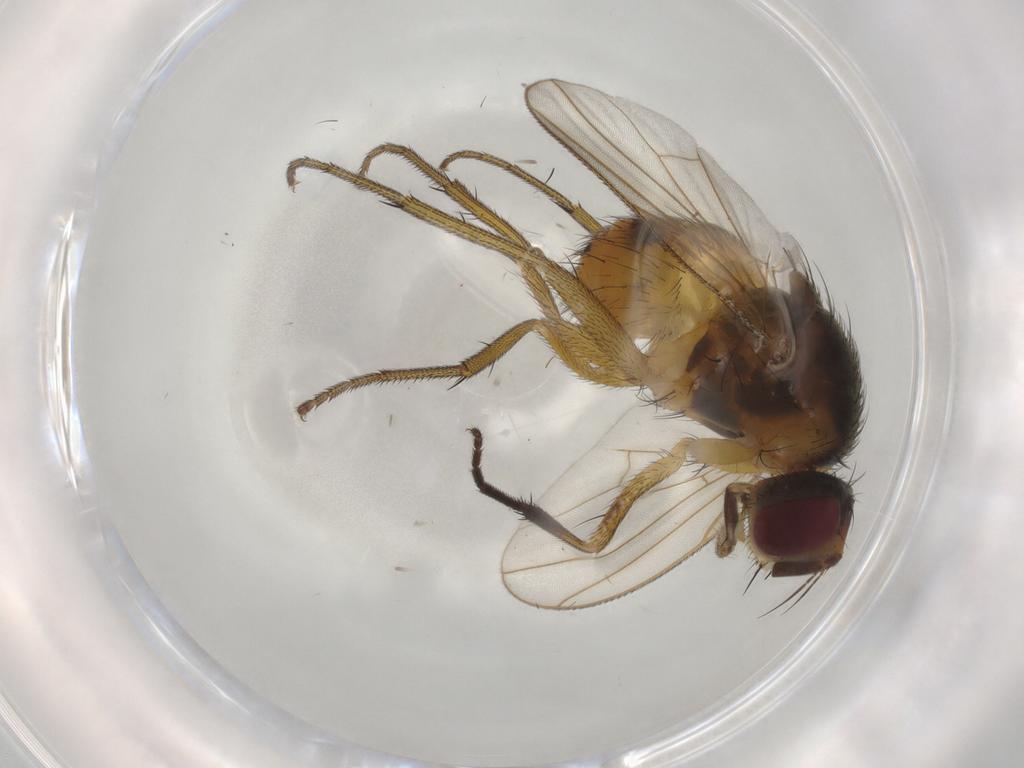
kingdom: Animalia
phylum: Arthropoda
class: Insecta
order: Diptera
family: Muscidae
